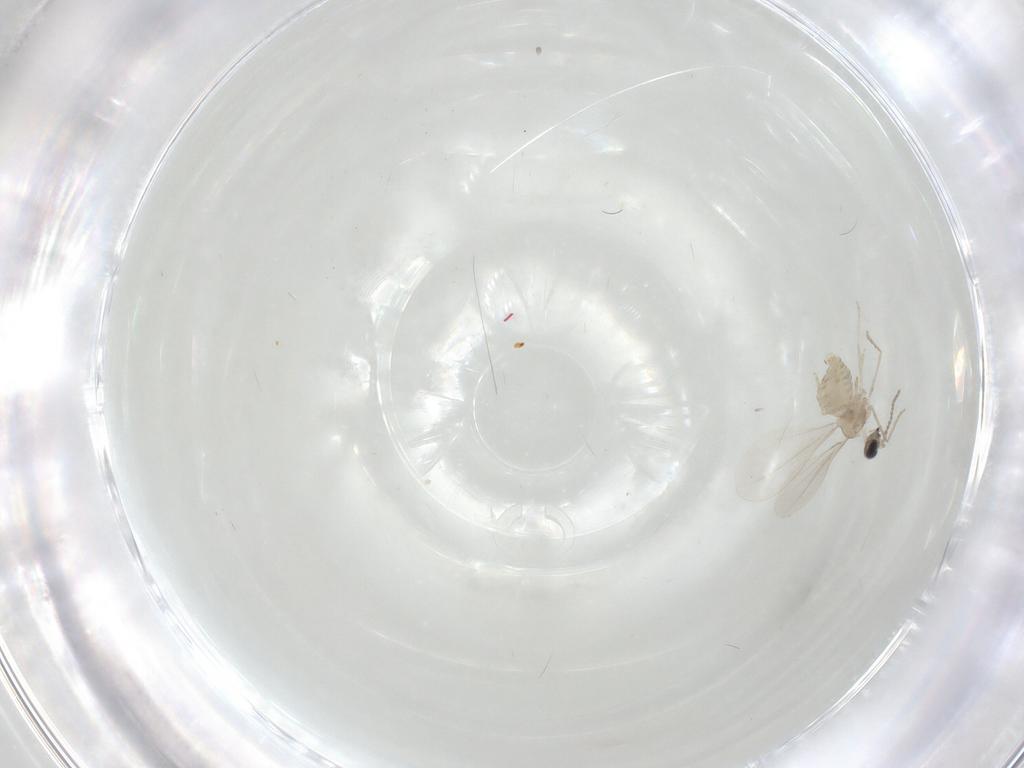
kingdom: Animalia
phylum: Arthropoda
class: Insecta
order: Diptera
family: Cecidomyiidae
